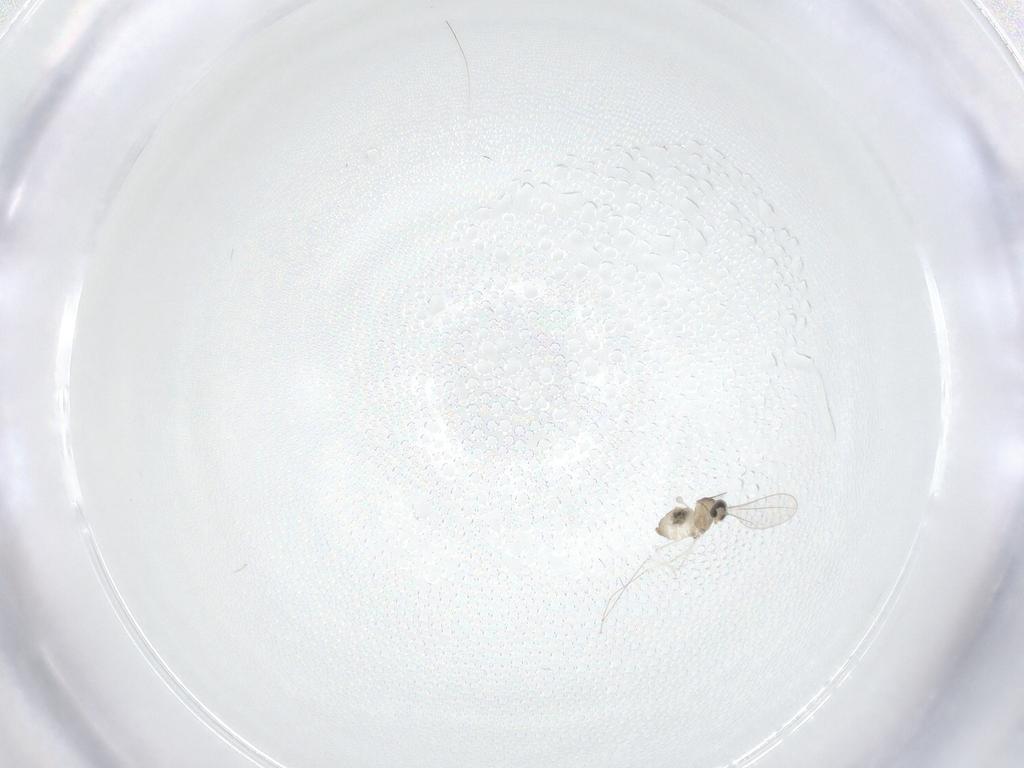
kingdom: Animalia
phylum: Arthropoda
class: Insecta
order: Diptera
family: Cecidomyiidae
